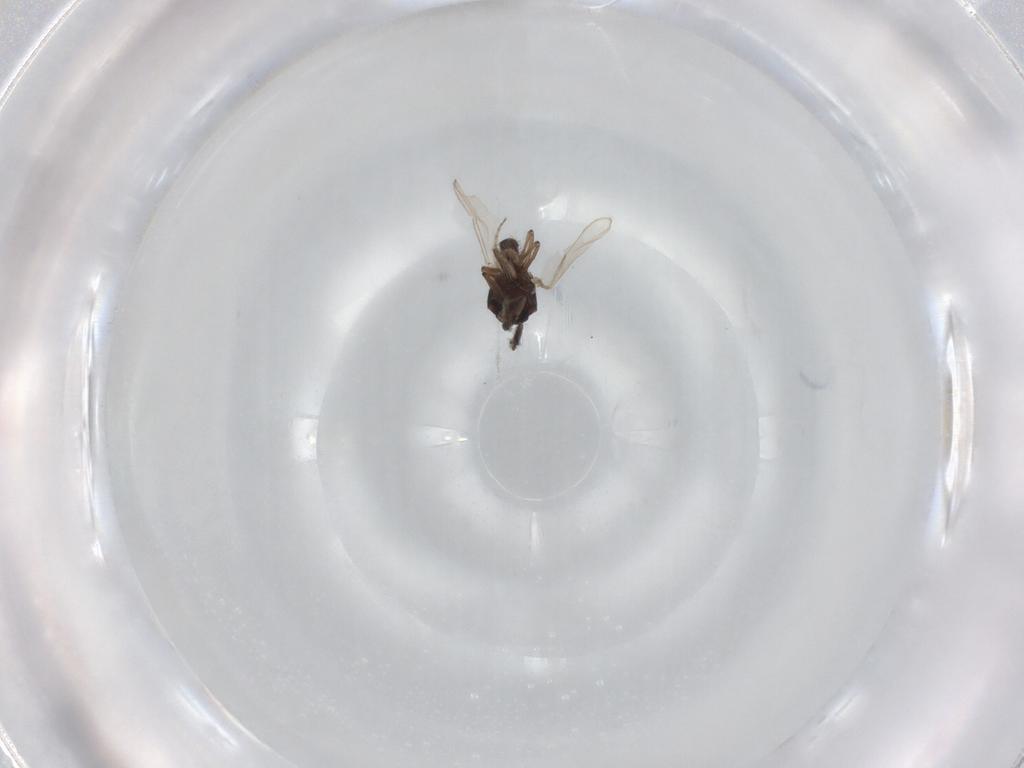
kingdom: Animalia
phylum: Arthropoda
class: Insecta
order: Diptera
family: Ceratopogonidae
